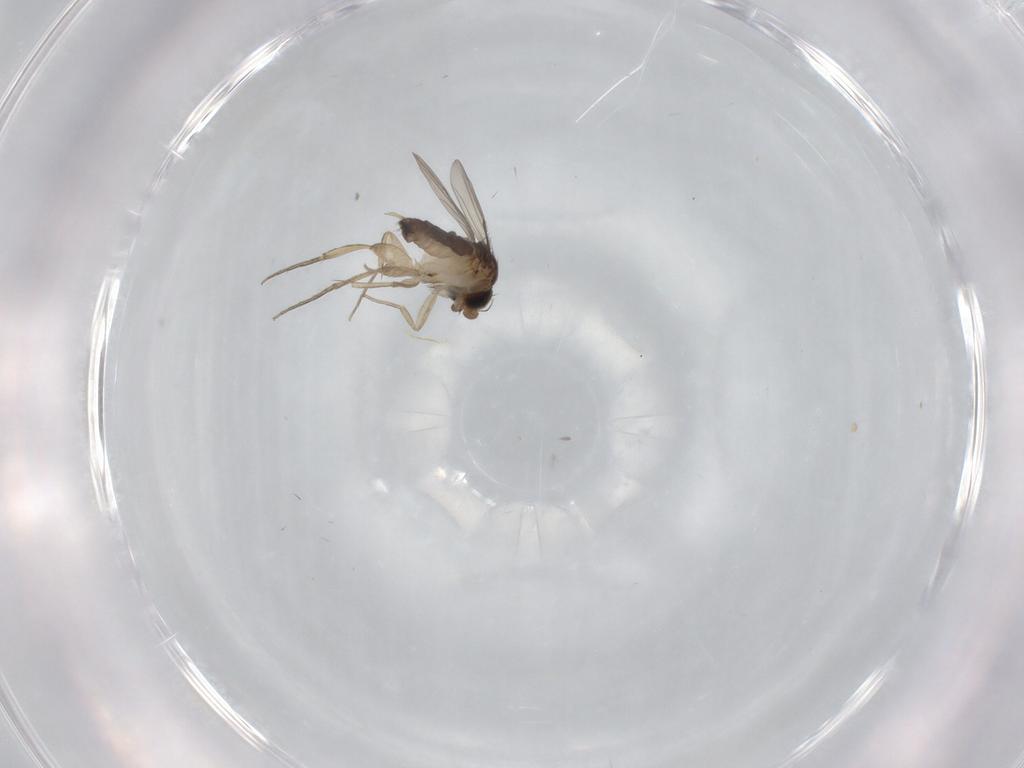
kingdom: Animalia
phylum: Arthropoda
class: Insecta
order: Diptera
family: Phoridae
